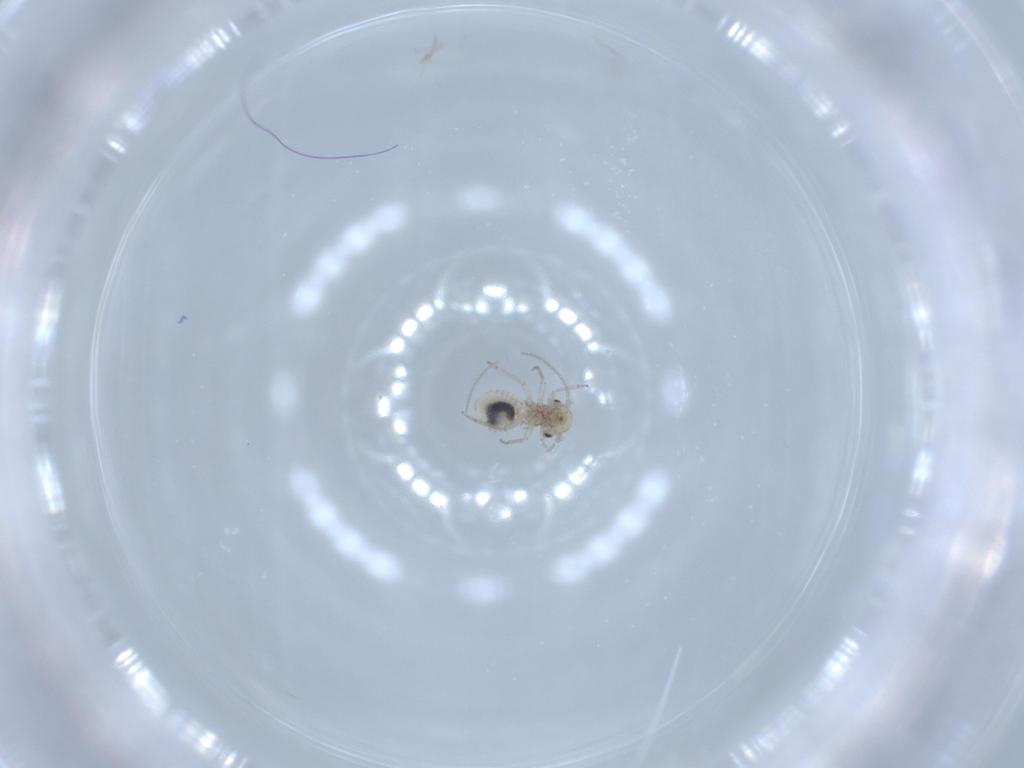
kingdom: Animalia
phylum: Arthropoda
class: Insecta
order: Psocodea
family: Lachesillidae
